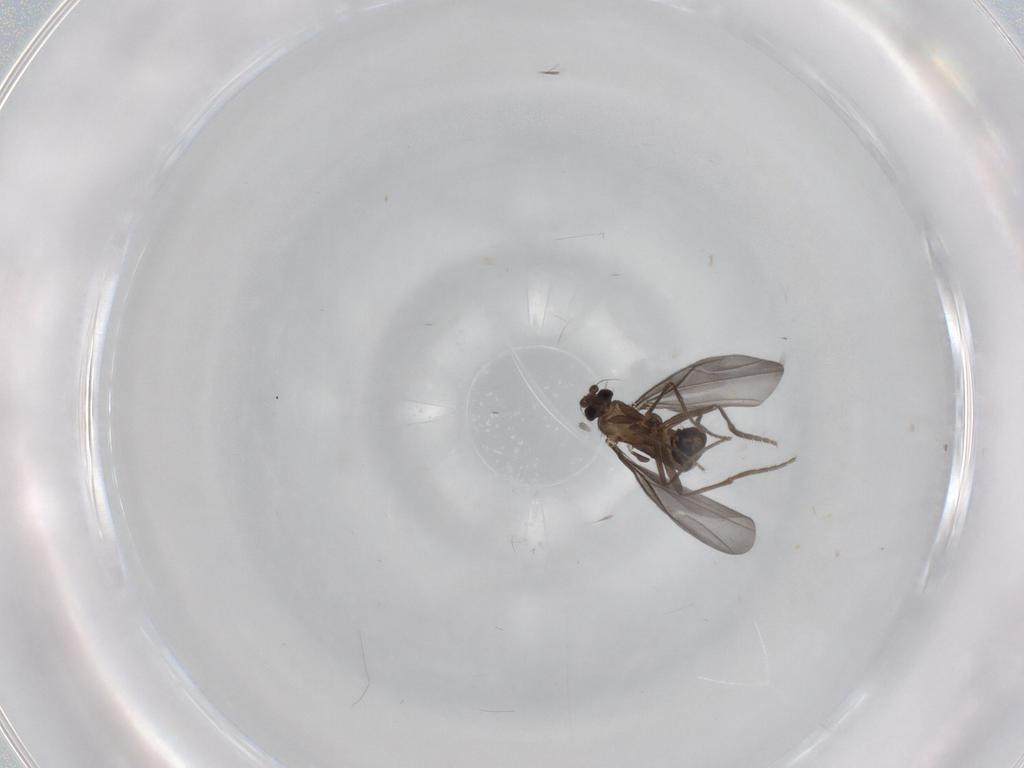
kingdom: Animalia
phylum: Arthropoda
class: Insecta
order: Diptera
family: Phoridae
